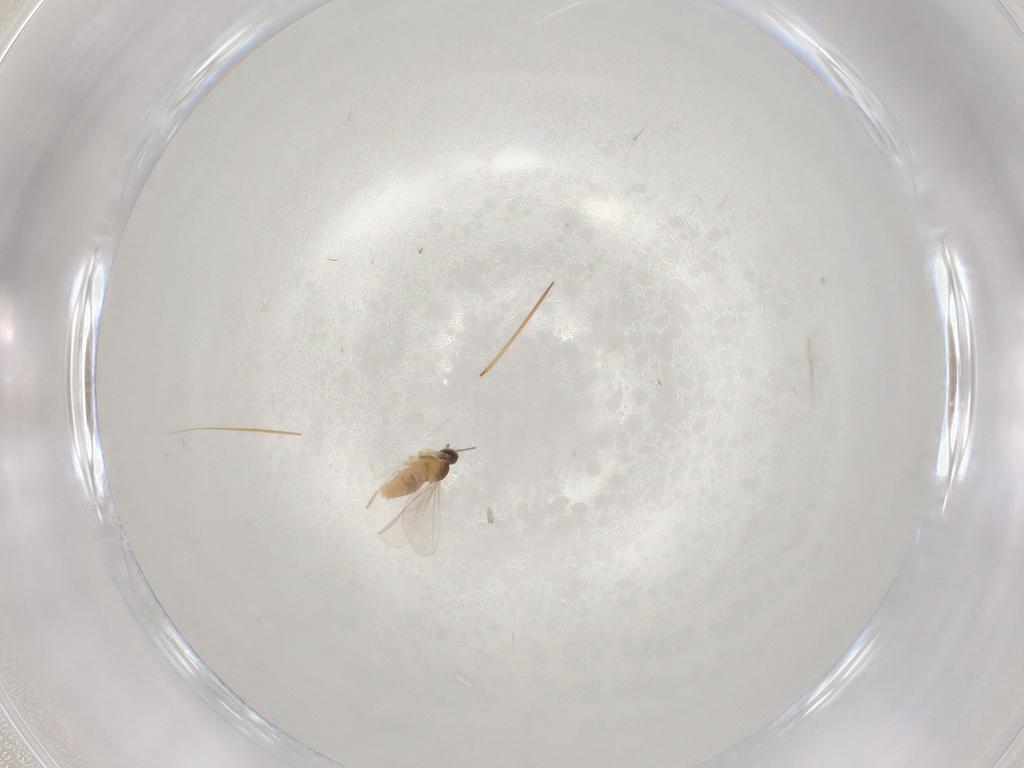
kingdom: Animalia
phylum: Arthropoda
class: Insecta
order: Diptera
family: Cecidomyiidae
